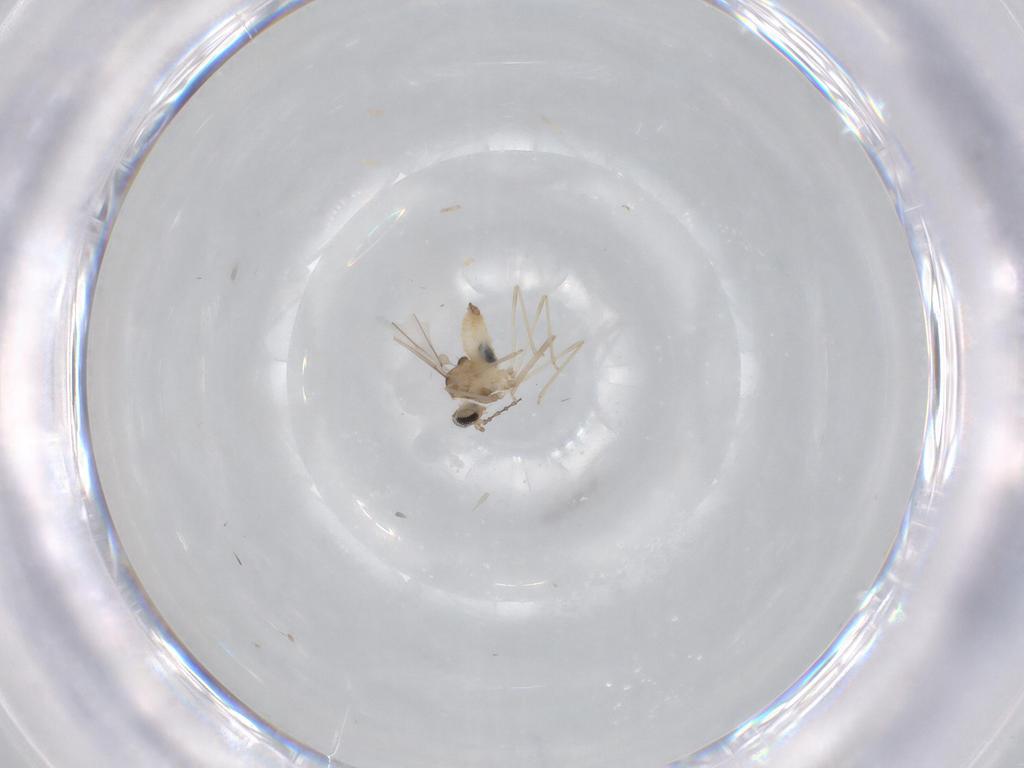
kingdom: Animalia
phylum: Arthropoda
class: Insecta
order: Diptera
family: Cecidomyiidae
